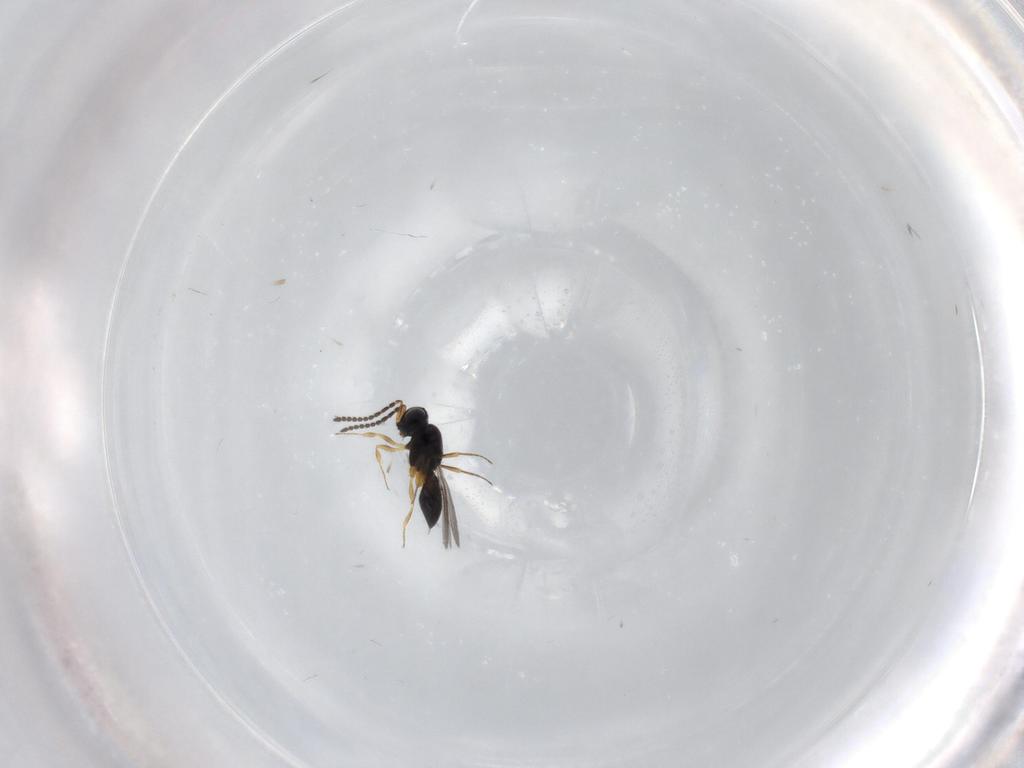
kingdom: Animalia
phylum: Arthropoda
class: Insecta
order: Hymenoptera
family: Scelionidae
